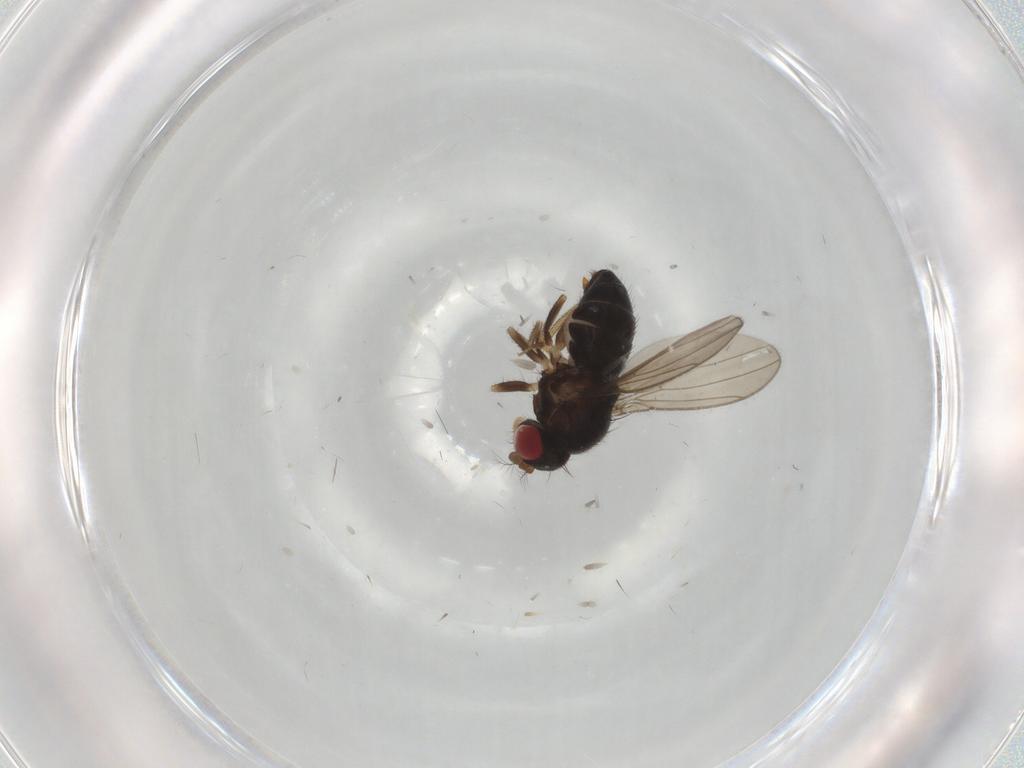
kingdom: Animalia
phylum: Arthropoda
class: Insecta
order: Diptera
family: Drosophilidae
